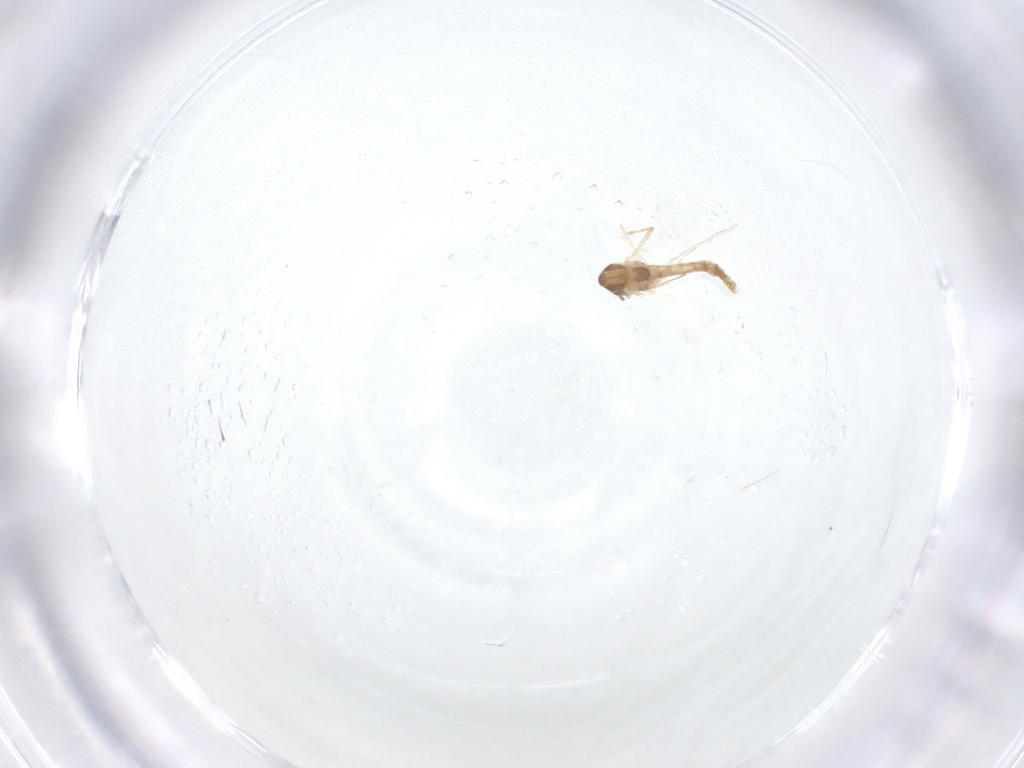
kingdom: Animalia
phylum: Arthropoda
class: Insecta
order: Diptera
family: Chironomidae
